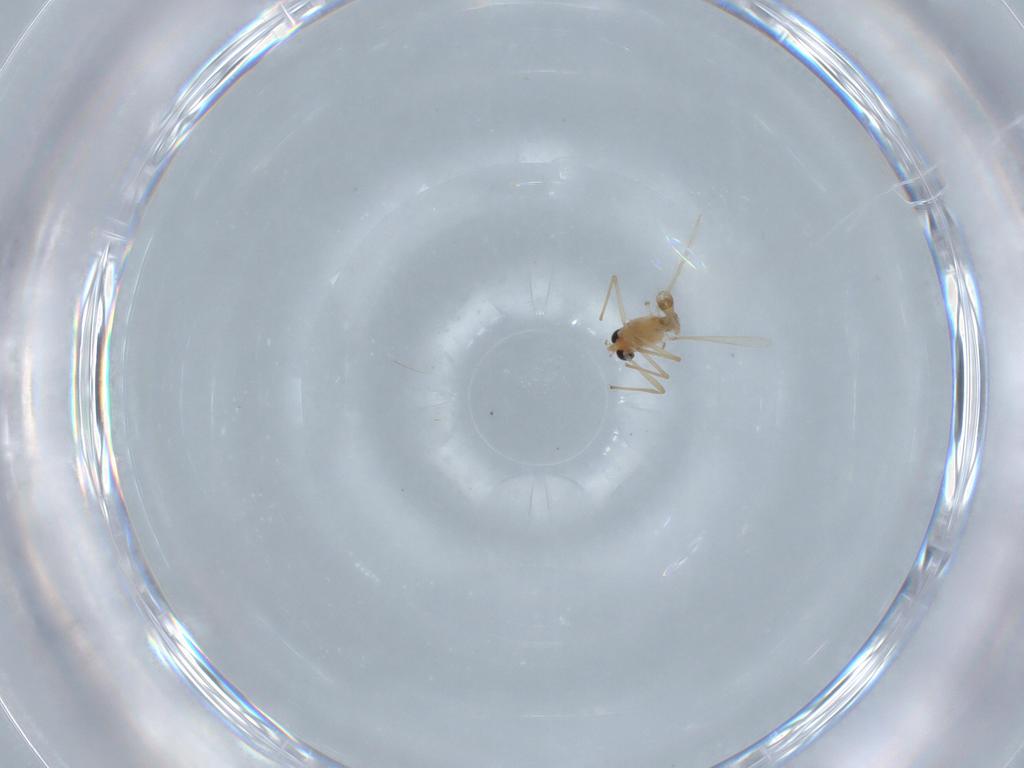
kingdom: Animalia
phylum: Arthropoda
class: Insecta
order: Diptera
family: Chironomidae
